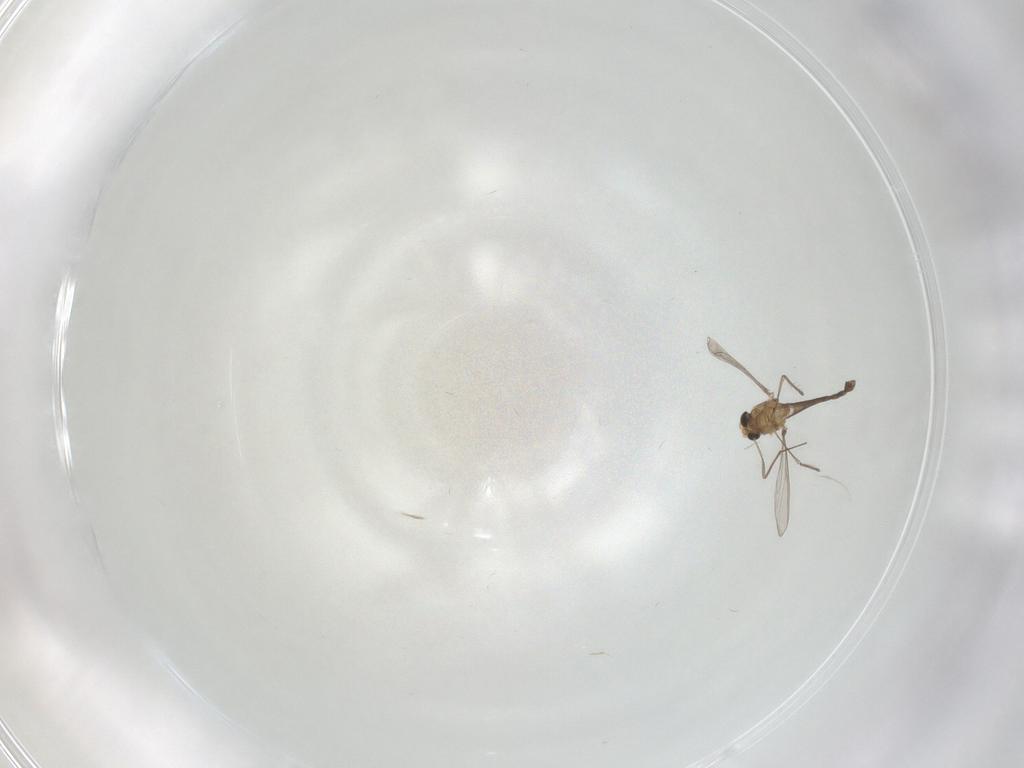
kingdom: Animalia
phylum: Arthropoda
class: Insecta
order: Diptera
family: Chironomidae
